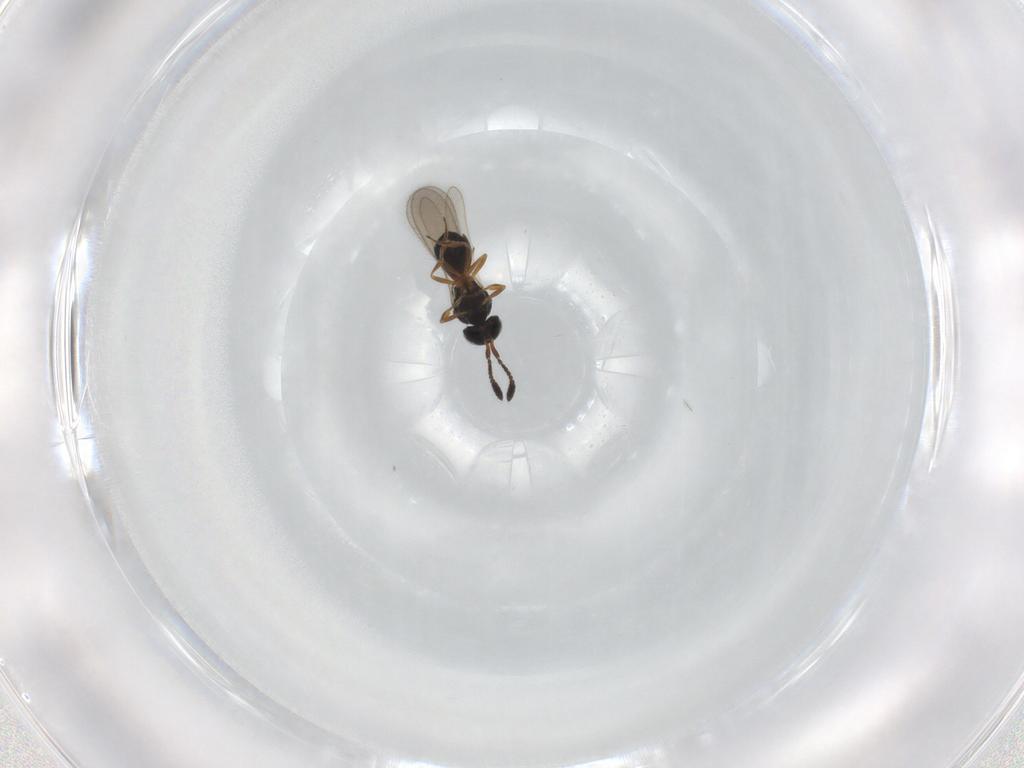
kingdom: Animalia
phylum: Arthropoda
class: Insecta
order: Hymenoptera
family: Scelionidae
